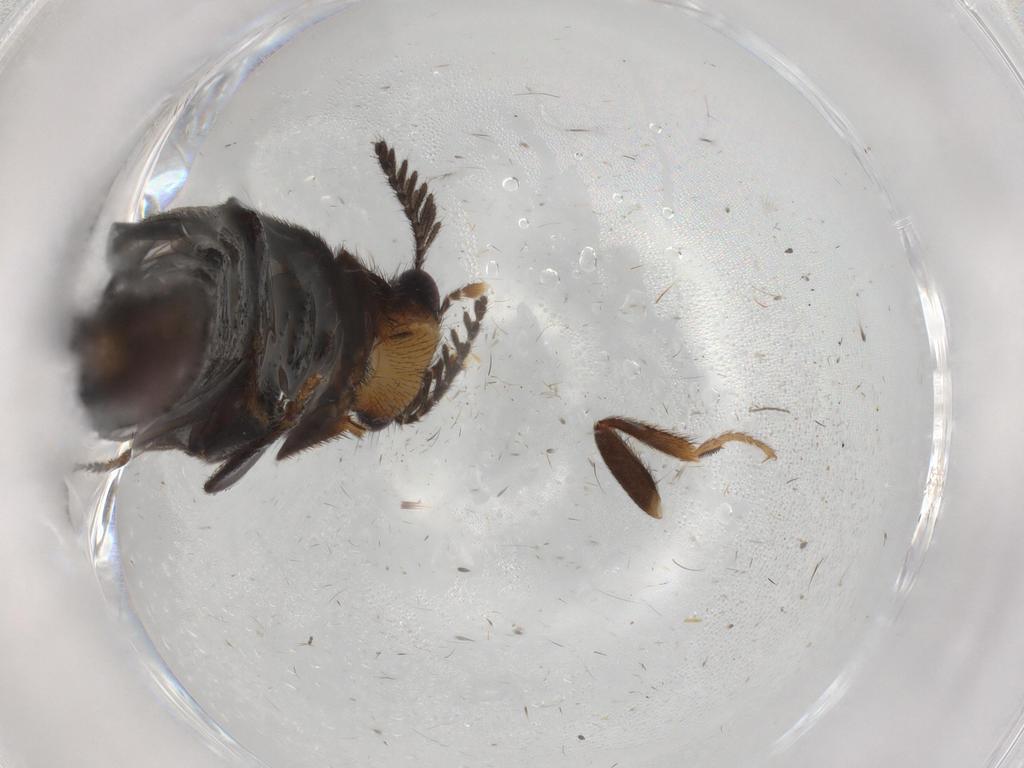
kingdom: Animalia
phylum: Arthropoda
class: Insecta
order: Coleoptera
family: Phengodidae
